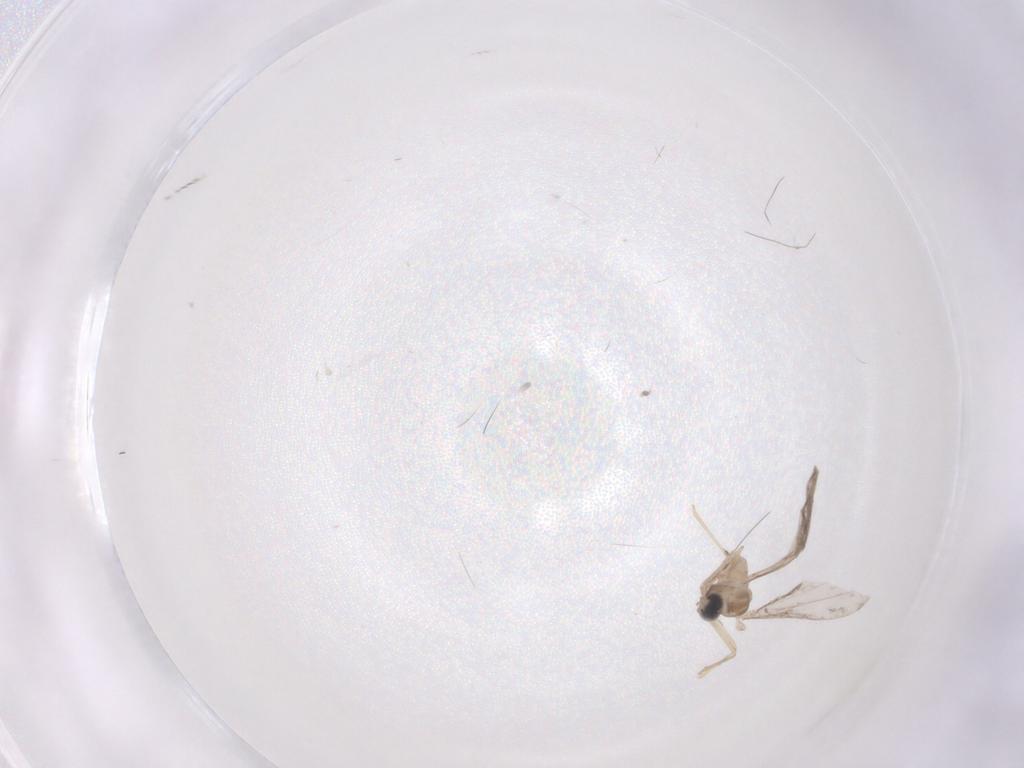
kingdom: Animalia
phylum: Arthropoda
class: Insecta
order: Diptera
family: Cecidomyiidae
